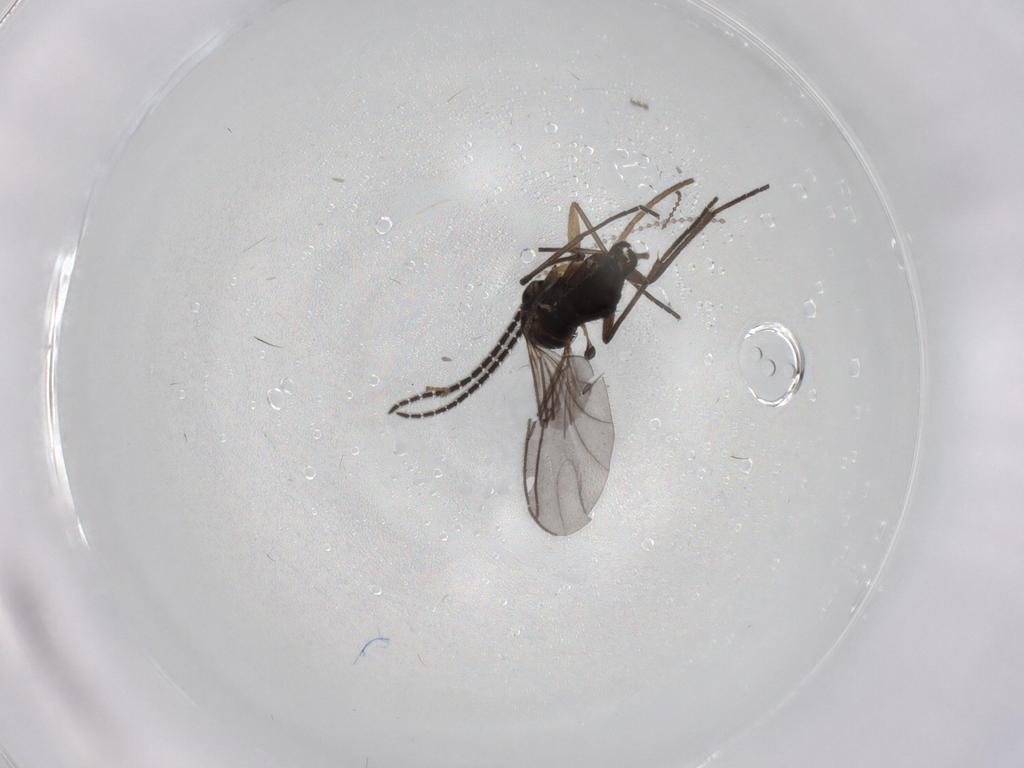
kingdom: Animalia
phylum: Arthropoda
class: Insecta
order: Diptera
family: Sciaridae
